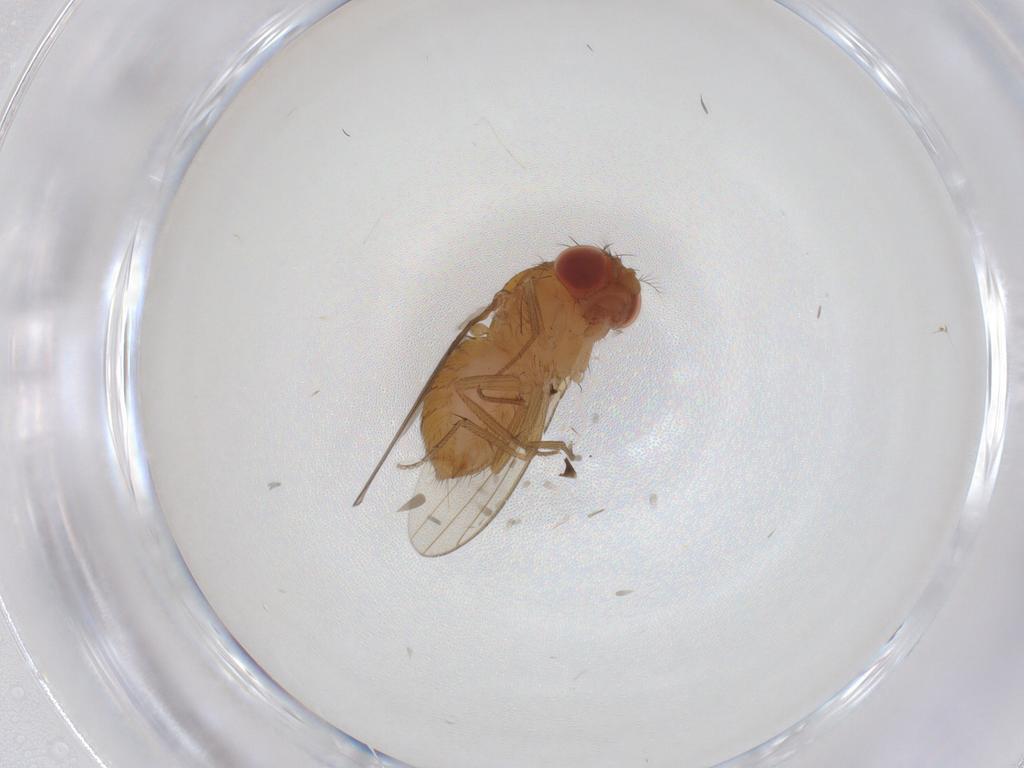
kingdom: Animalia
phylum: Arthropoda
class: Insecta
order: Diptera
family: Drosophilidae
